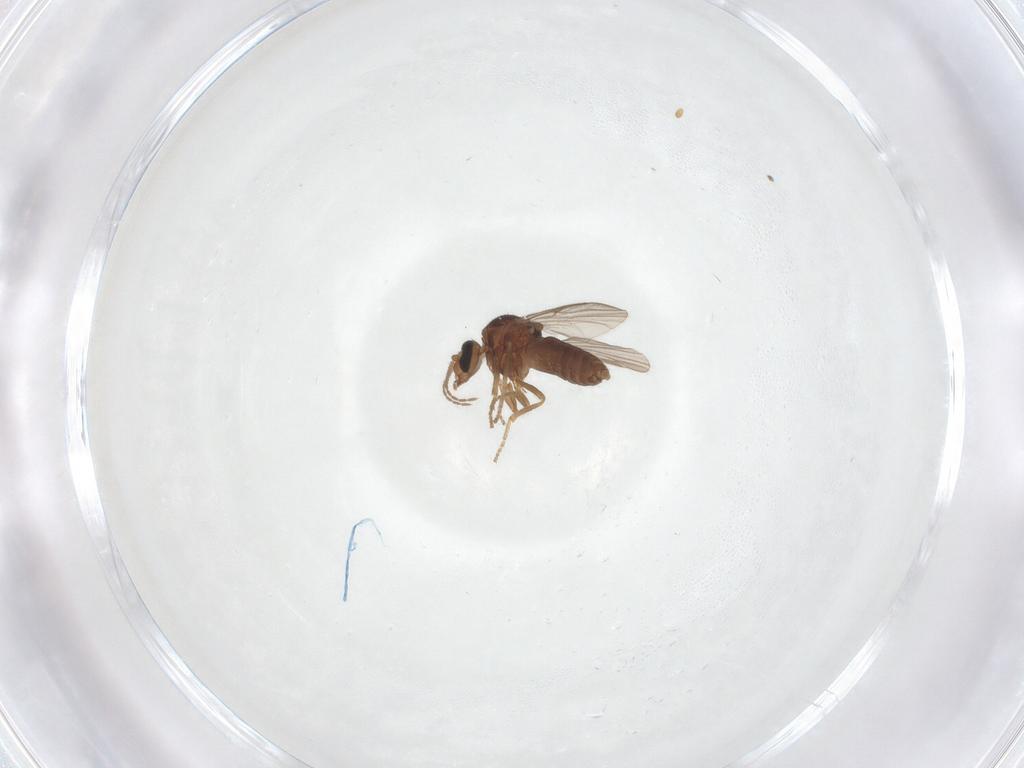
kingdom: Animalia
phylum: Arthropoda
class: Insecta
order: Diptera
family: Ceratopogonidae
